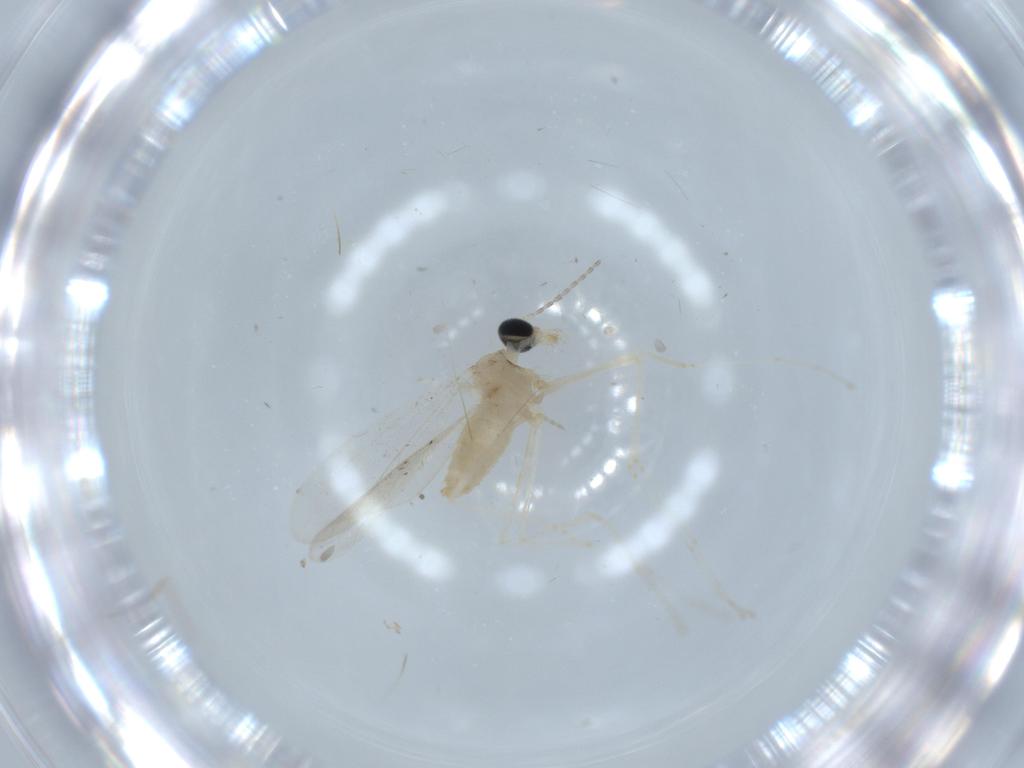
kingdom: Animalia
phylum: Arthropoda
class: Insecta
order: Diptera
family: Cecidomyiidae
